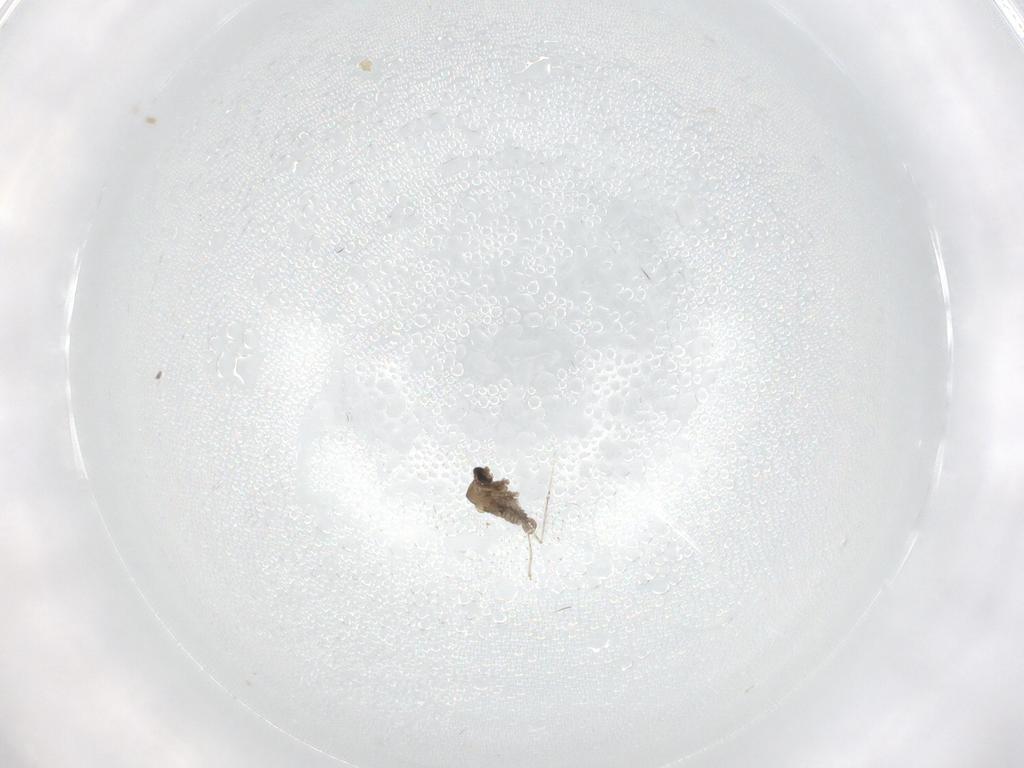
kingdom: Animalia
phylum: Arthropoda
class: Insecta
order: Diptera
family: Cecidomyiidae
